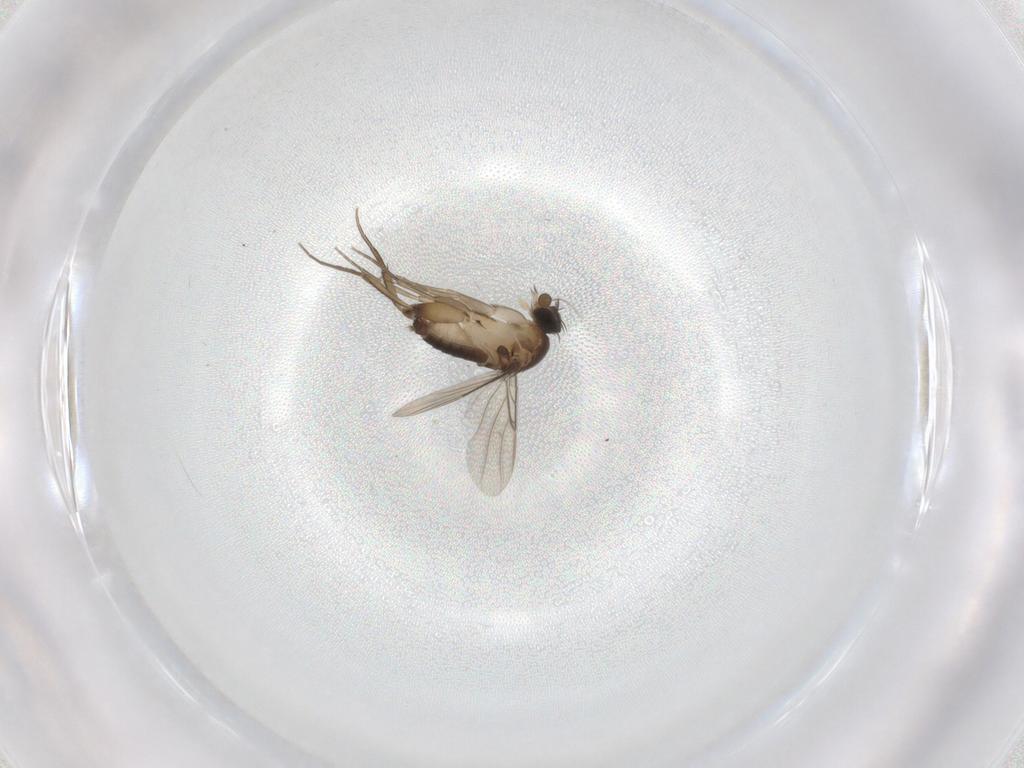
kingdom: Animalia
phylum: Arthropoda
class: Insecta
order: Diptera
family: Phoridae
